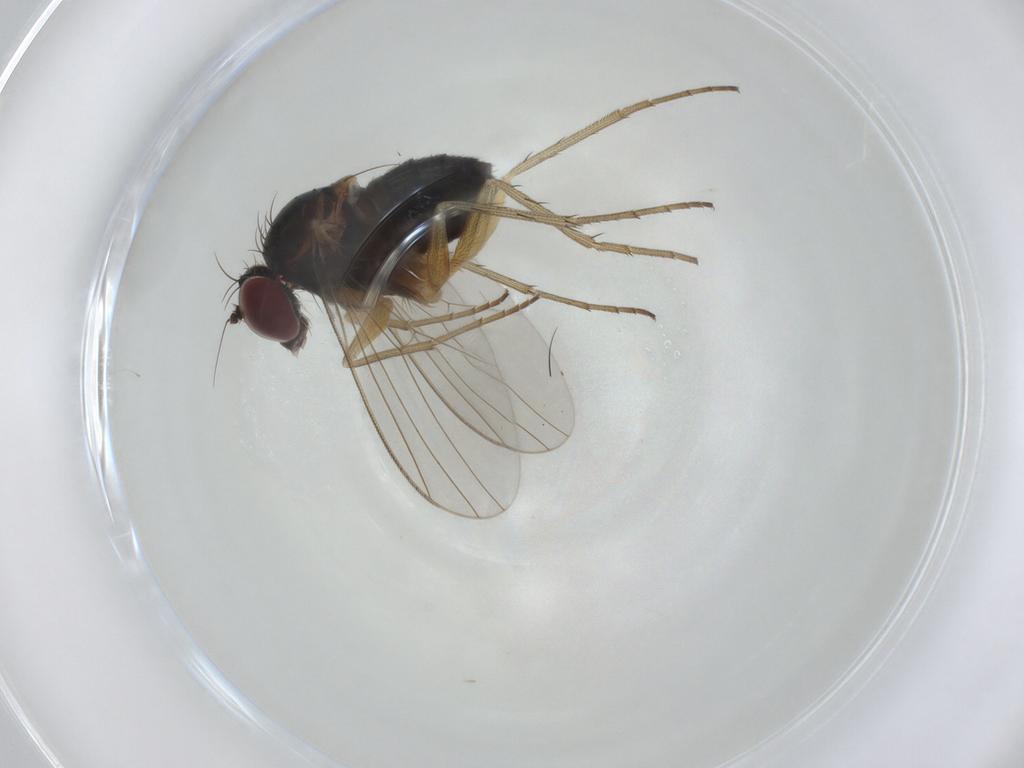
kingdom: Animalia
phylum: Arthropoda
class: Insecta
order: Diptera
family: Dolichopodidae
